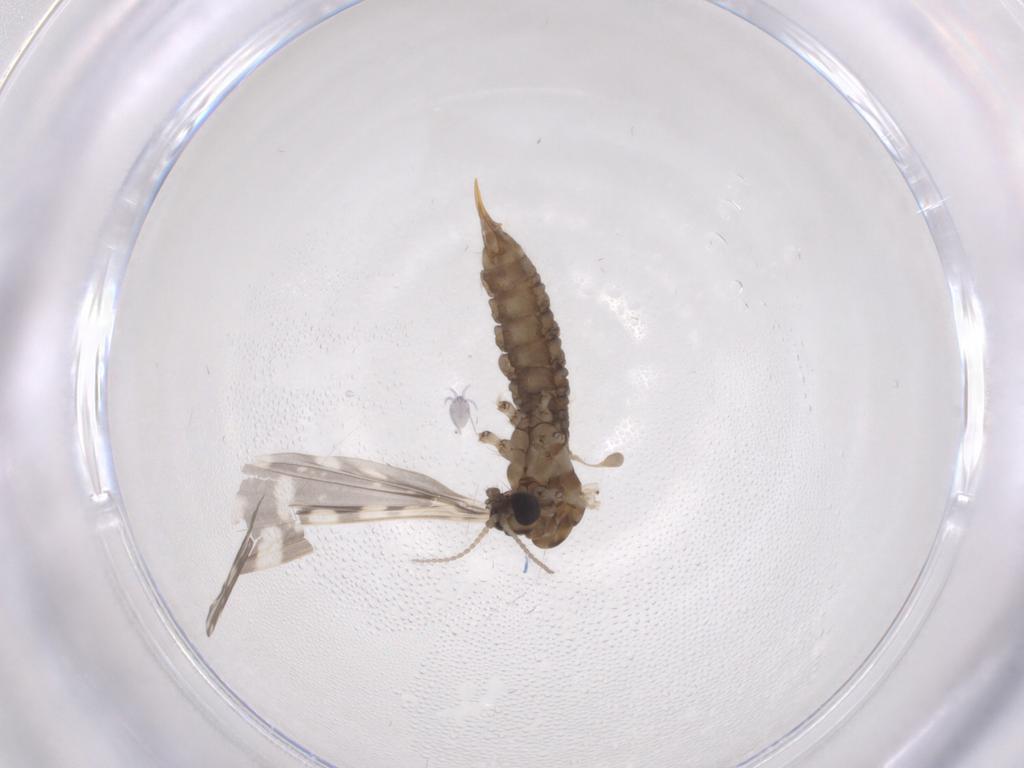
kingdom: Animalia
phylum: Arthropoda
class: Insecta
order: Diptera
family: Limoniidae
